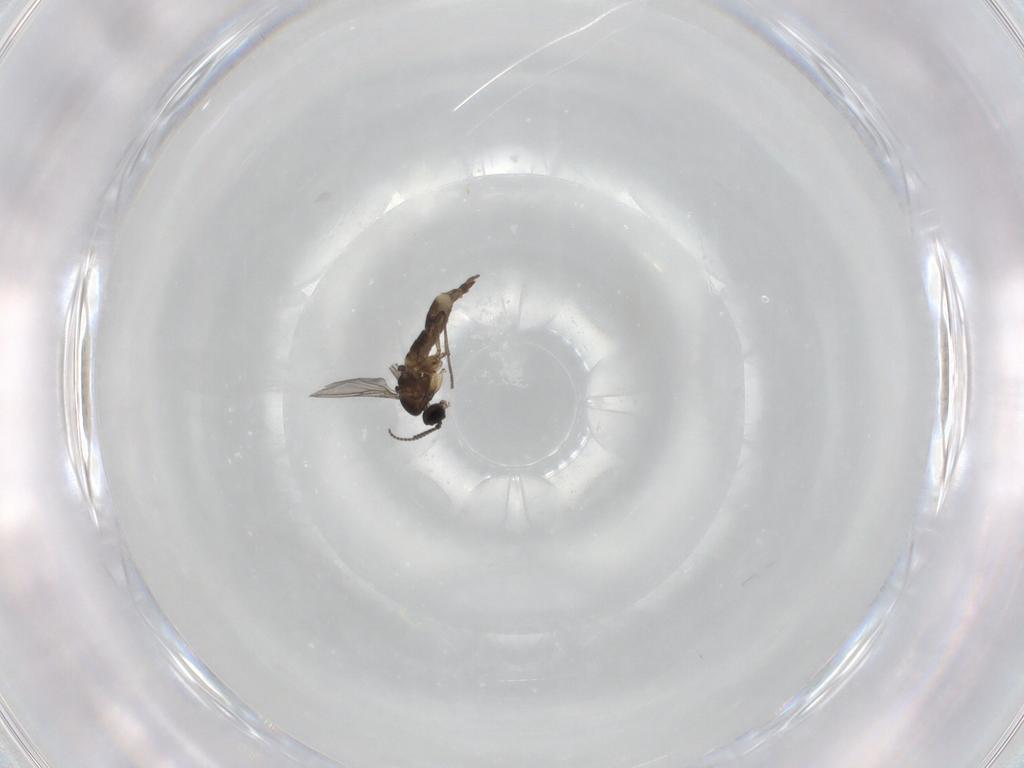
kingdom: Animalia
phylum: Arthropoda
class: Insecta
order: Diptera
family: Sciaridae
